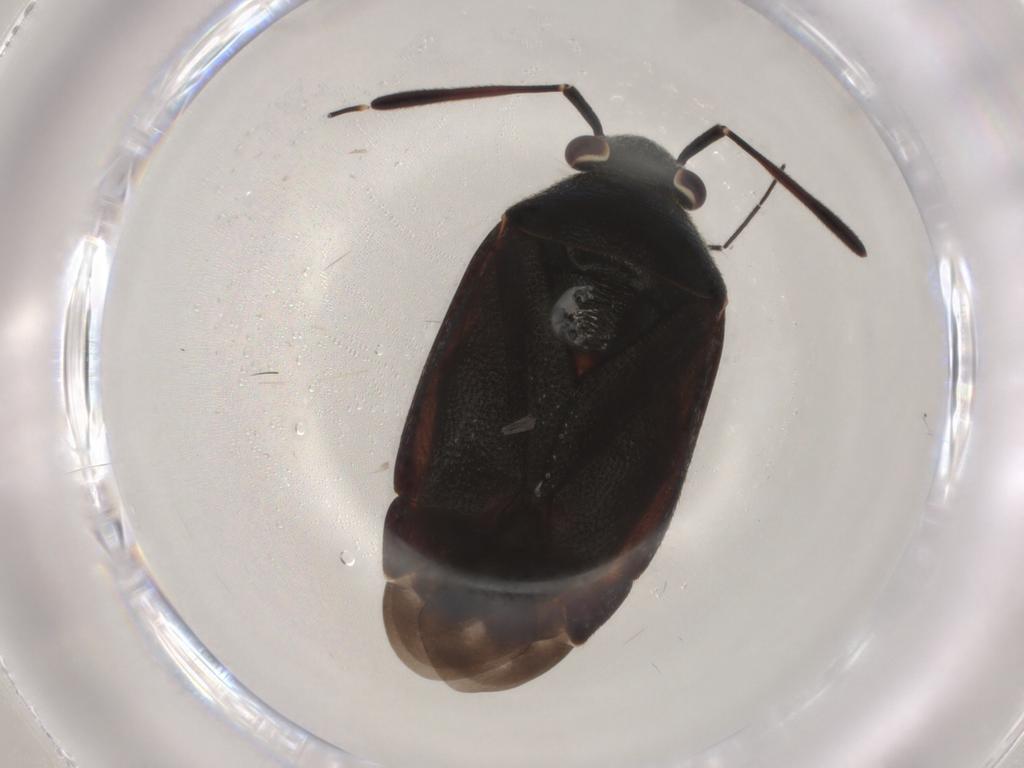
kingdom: Animalia
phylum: Arthropoda
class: Insecta
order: Hemiptera
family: Miridae
